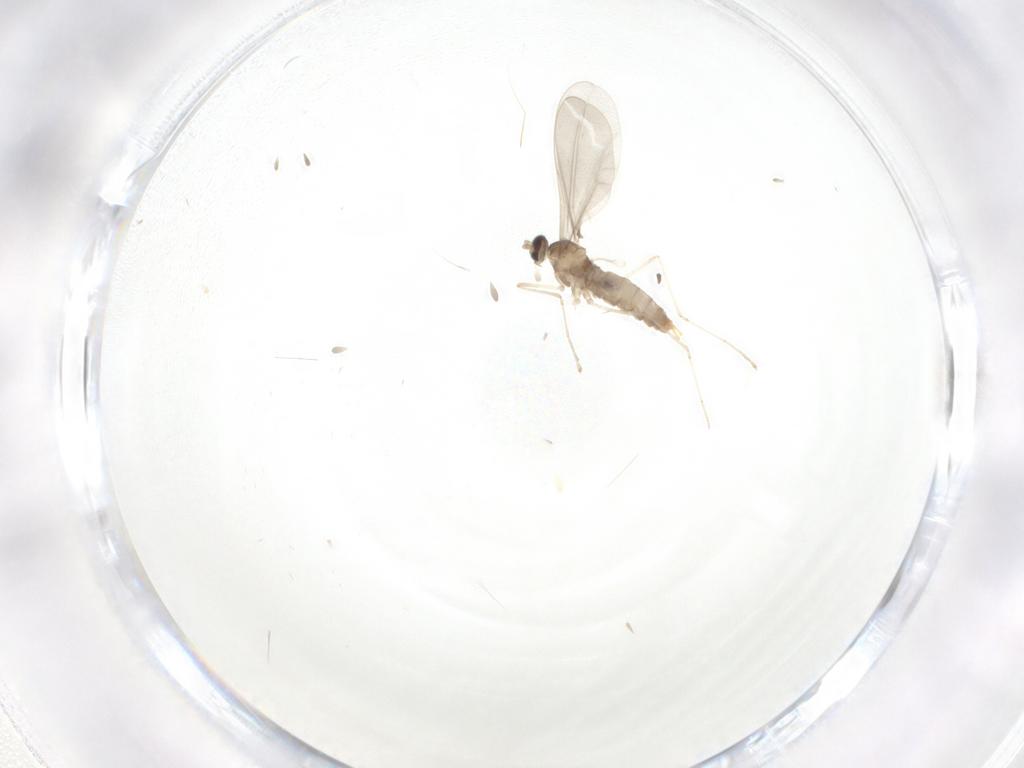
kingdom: Animalia
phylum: Arthropoda
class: Insecta
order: Diptera
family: Cecidomyiidae
